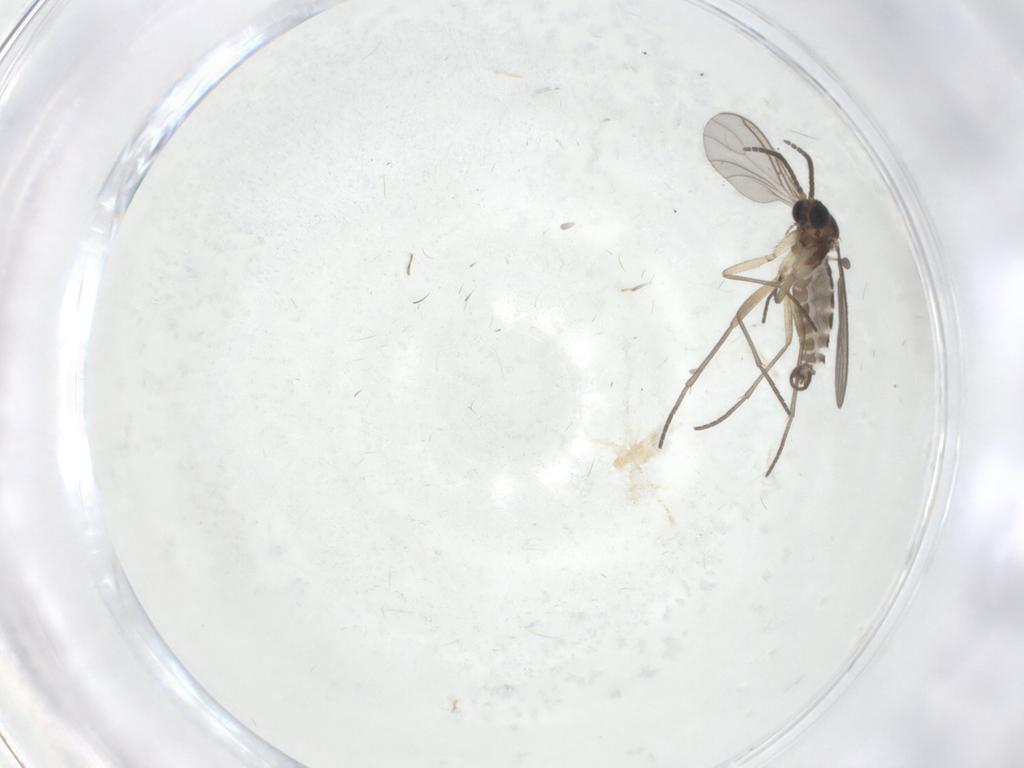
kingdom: Animalia
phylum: Arthropoda
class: Insecta
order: Diptera
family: Sciaridae
